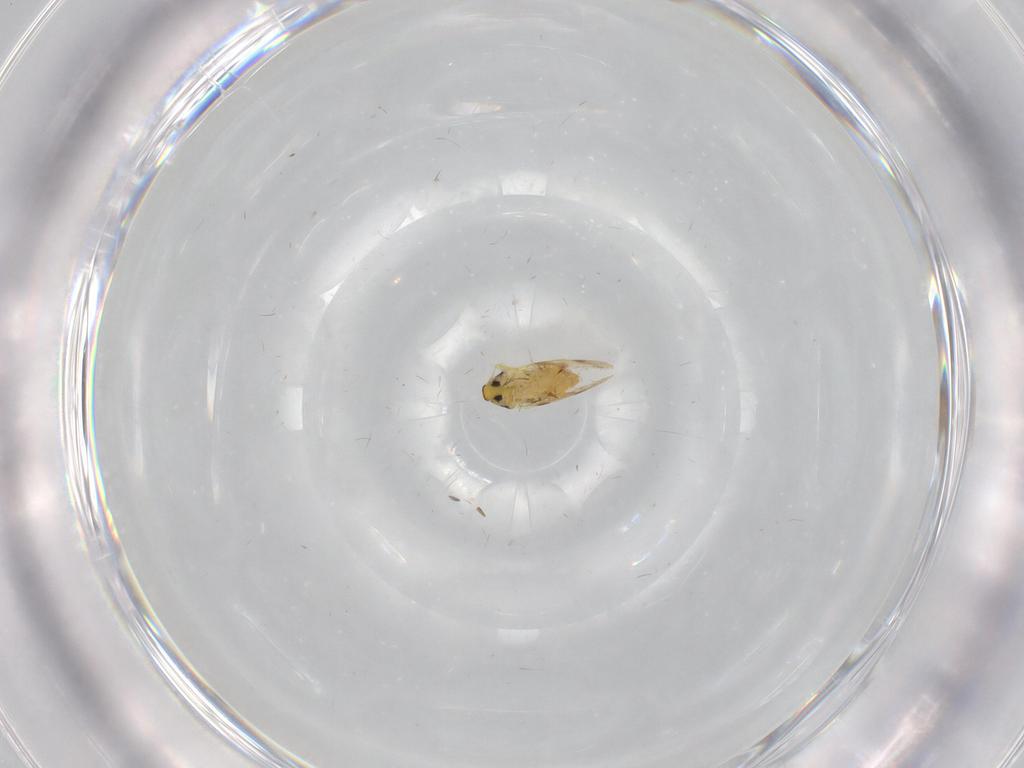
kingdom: Animalia
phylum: Arthropoda
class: Insecta
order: Hemiptera
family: Aleyrodidae
